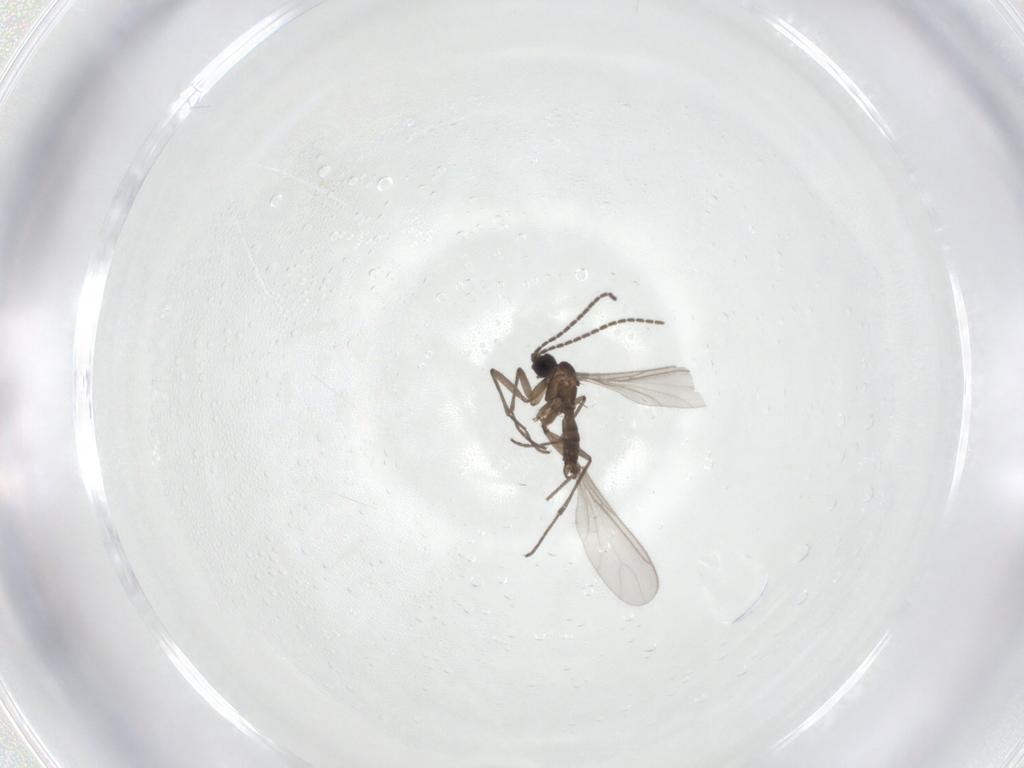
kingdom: Animalia
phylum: Arthropoda
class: Insecta
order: Diptera
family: Sciaridae
